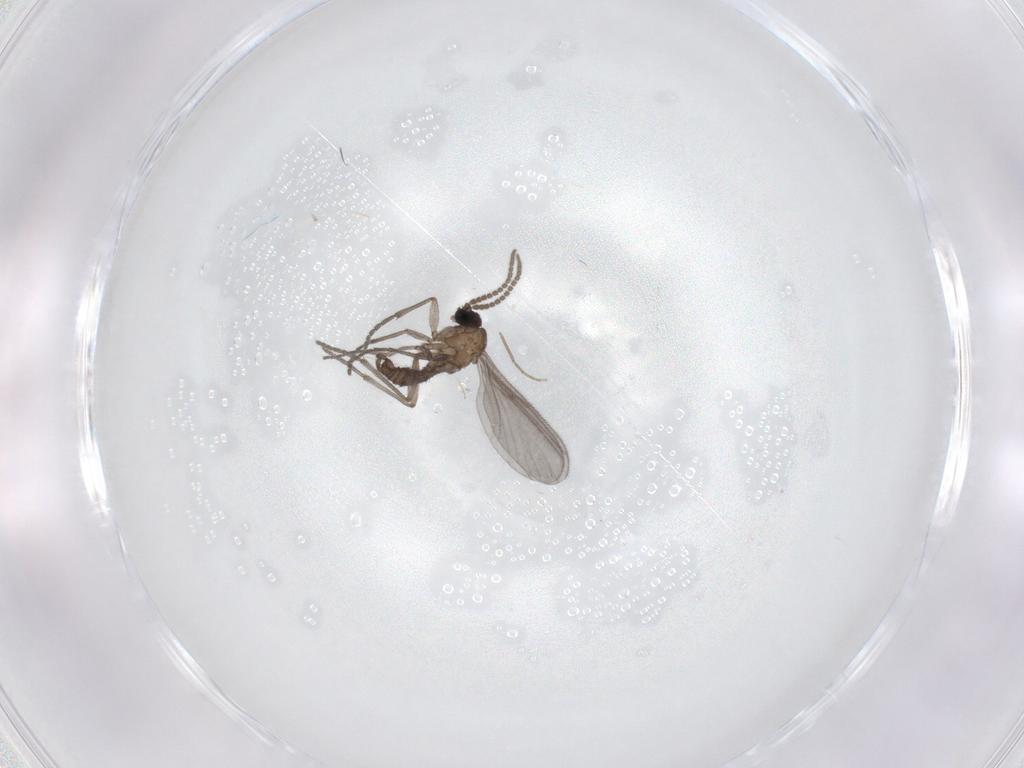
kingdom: Animalia
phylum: Arthropoda
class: Insecta
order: Diptera
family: Sciaridae
